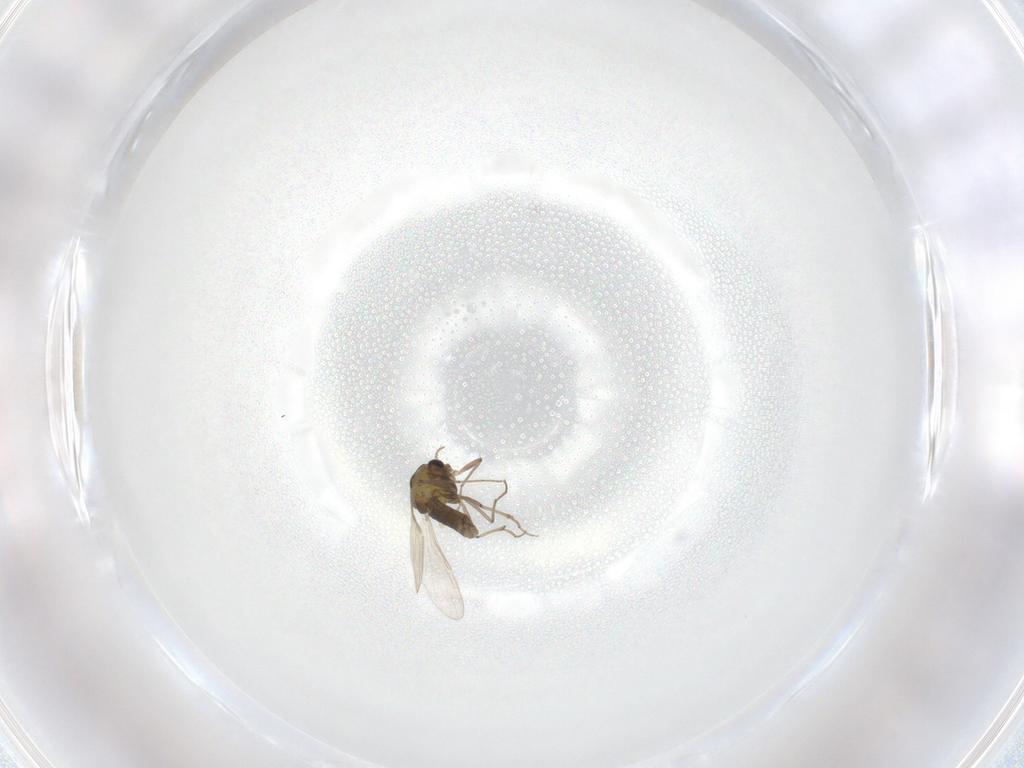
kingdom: Animalia
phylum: Arthropoda
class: Insecta
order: Diptera
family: Chironomidae
